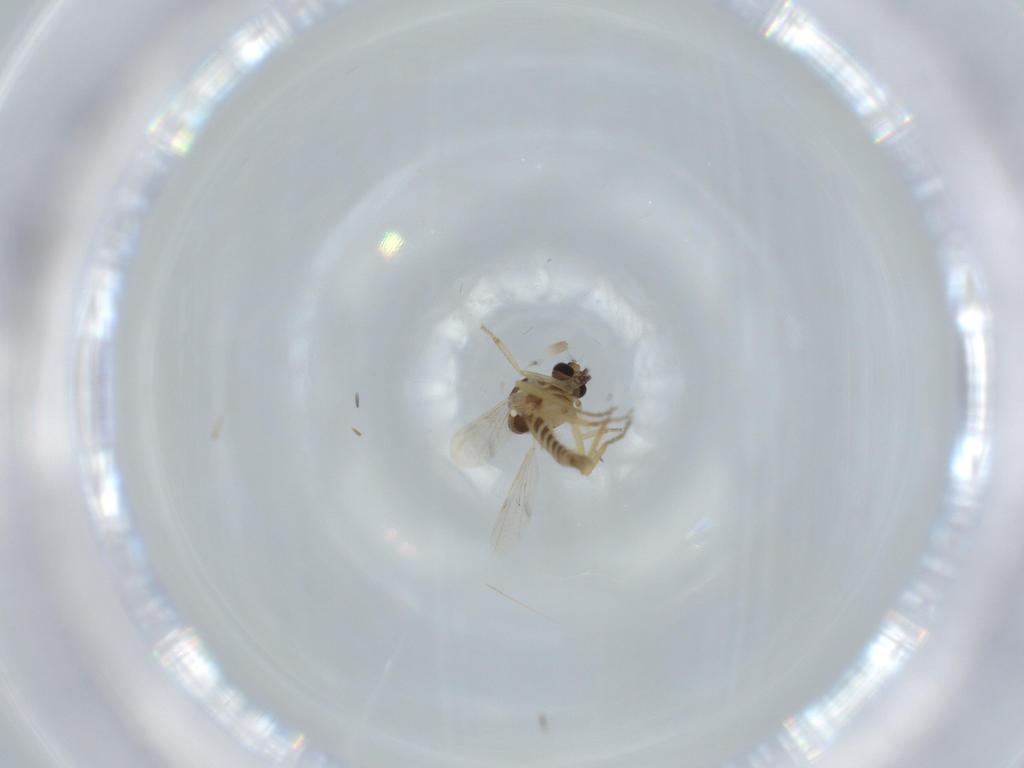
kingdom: Animalia
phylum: Arthropoda
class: Insecta
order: Diptera
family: Ceratopogonidae
